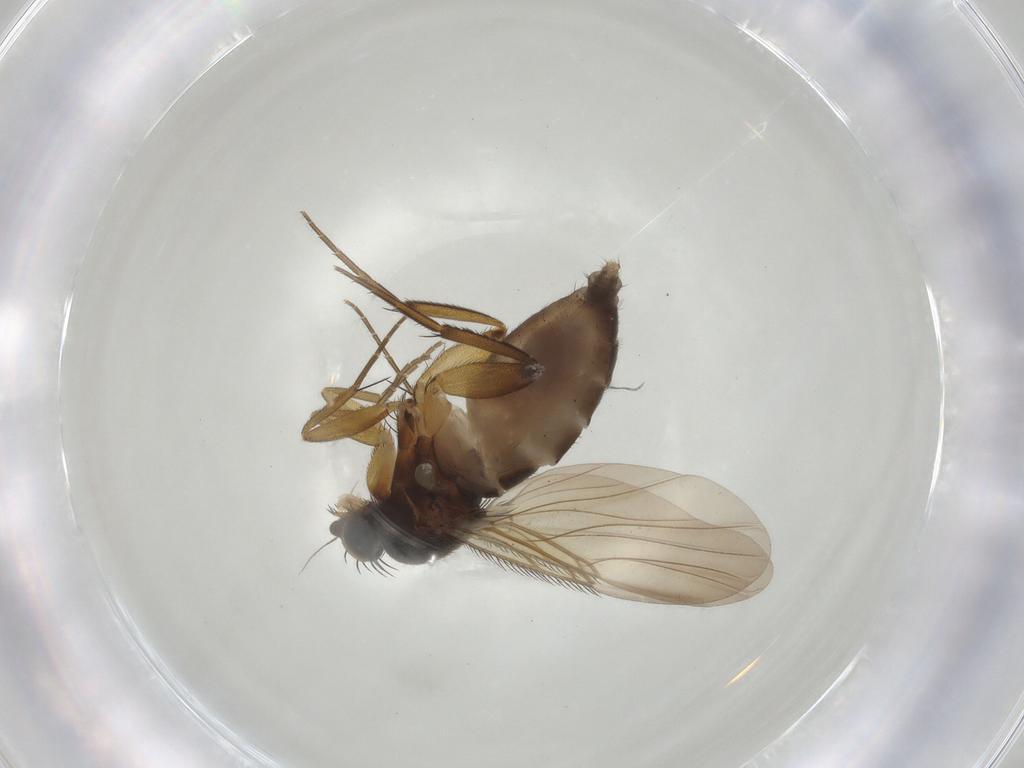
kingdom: Animalia
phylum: Arthropoda
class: Insecta
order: Diptera
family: Phoridae
